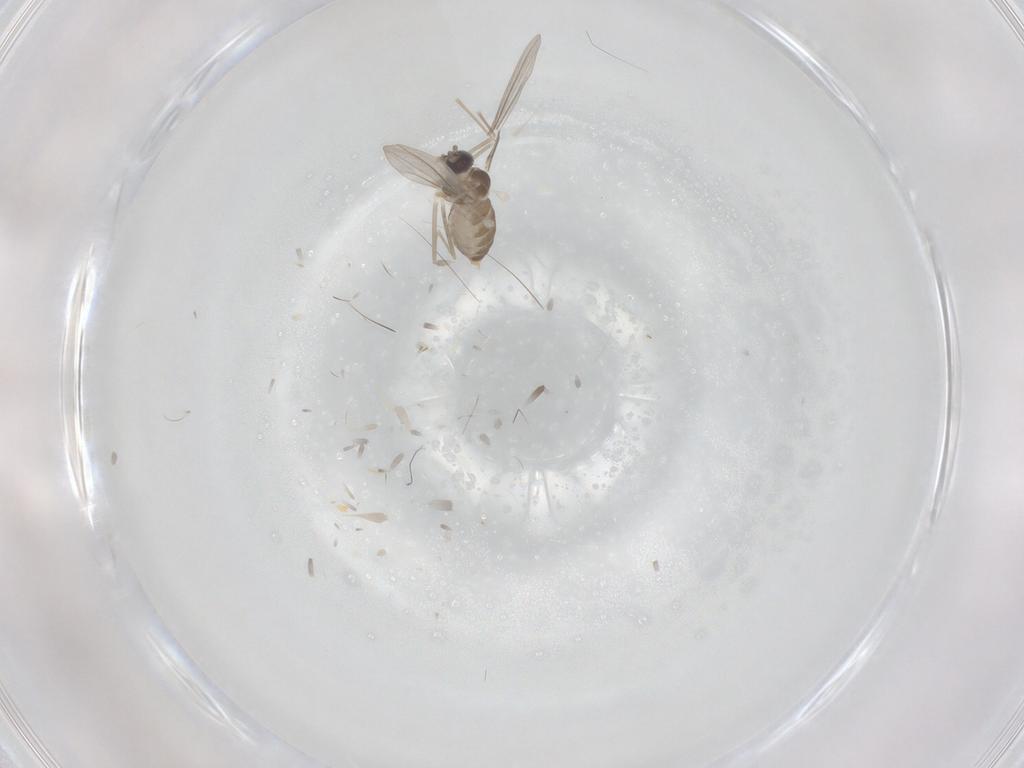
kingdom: Animalia
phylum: Arthropoda
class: Insecta
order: Diptera
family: Cecidomyiidae
